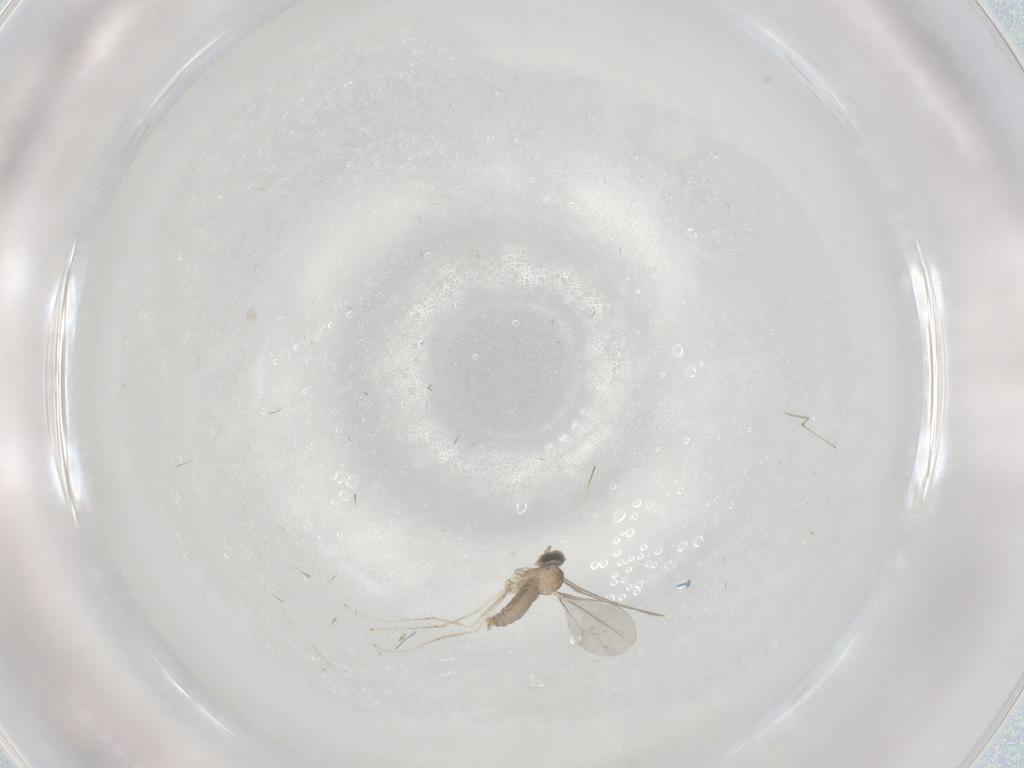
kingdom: Animalia
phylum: Arthropoda
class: Insecta
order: Diptera
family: Cecidomyiidae
